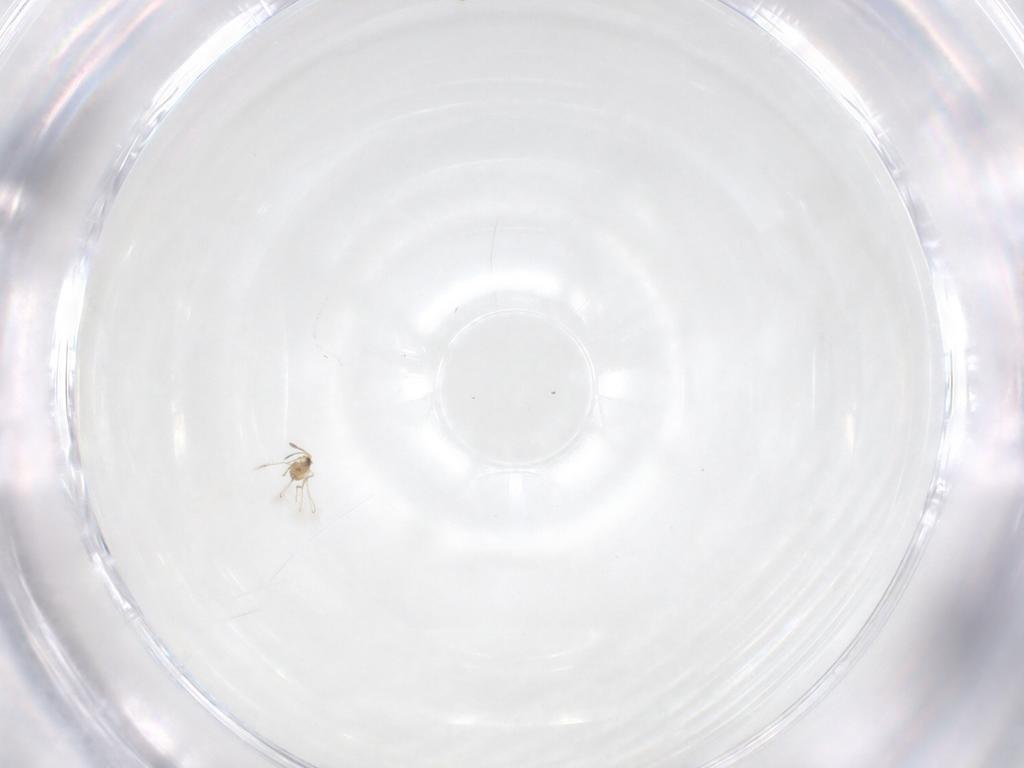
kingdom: Animalia
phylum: Arthropoda
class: Insecta
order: Hymenoptera
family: Mymaridae
